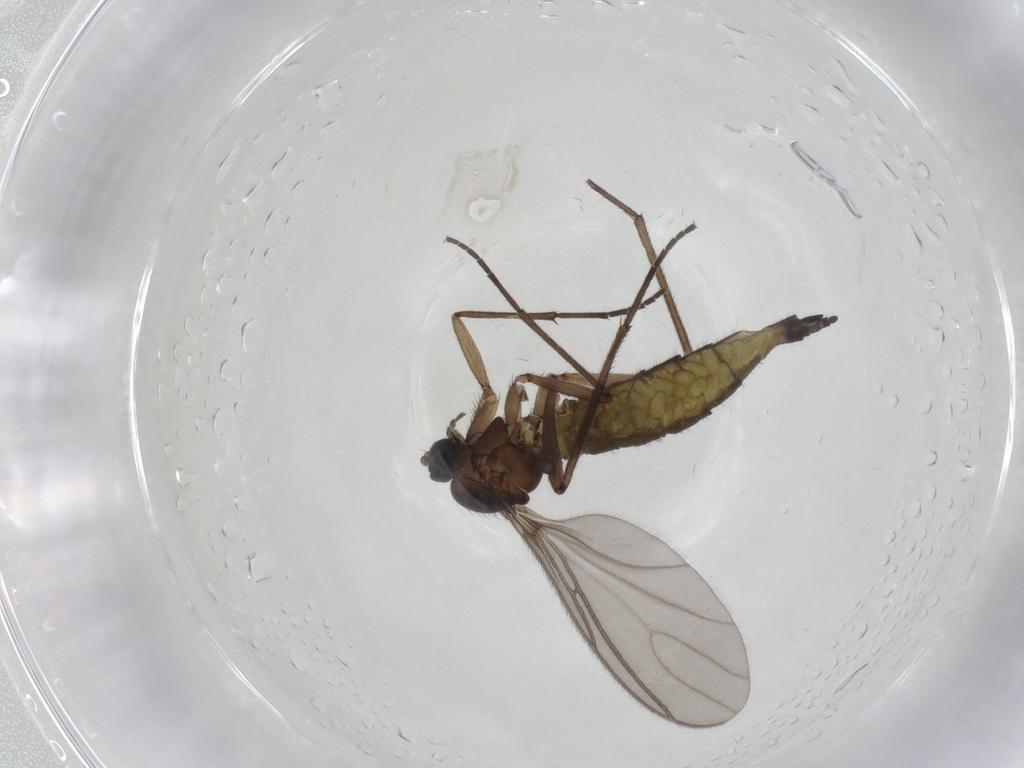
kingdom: Animalia
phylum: Arthropoda
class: Insecta
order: Diptera
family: Sciaridae
